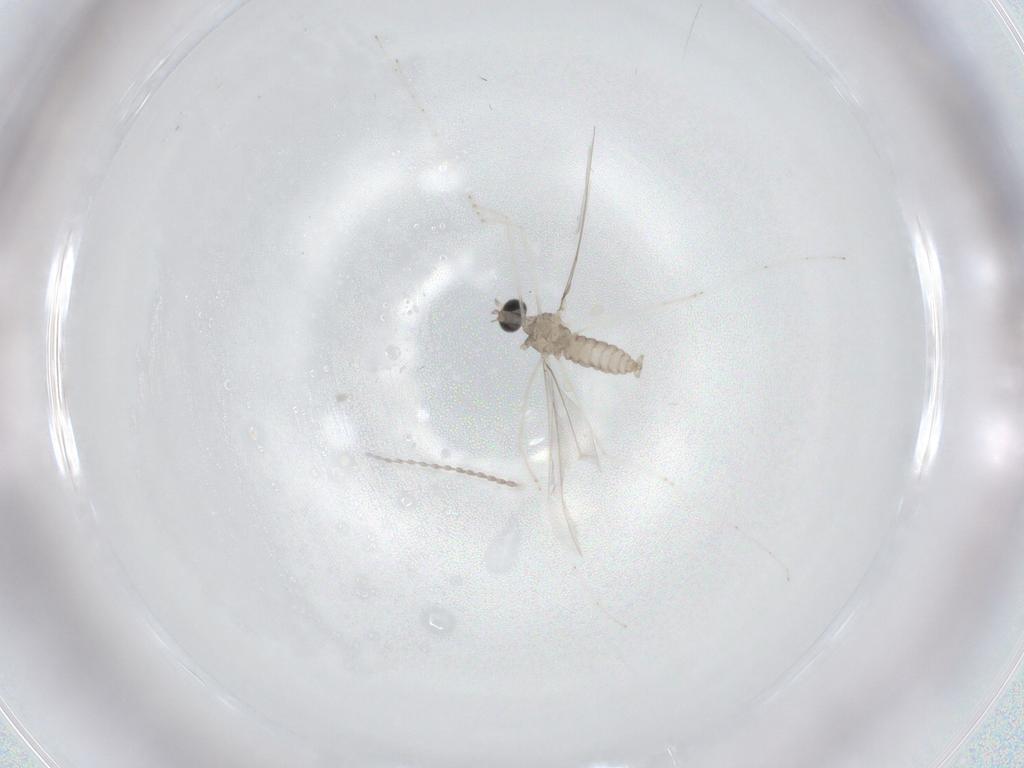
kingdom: Animalia
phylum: Arthropoda
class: Insecta
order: Diptera
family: Cecidomyiidae
